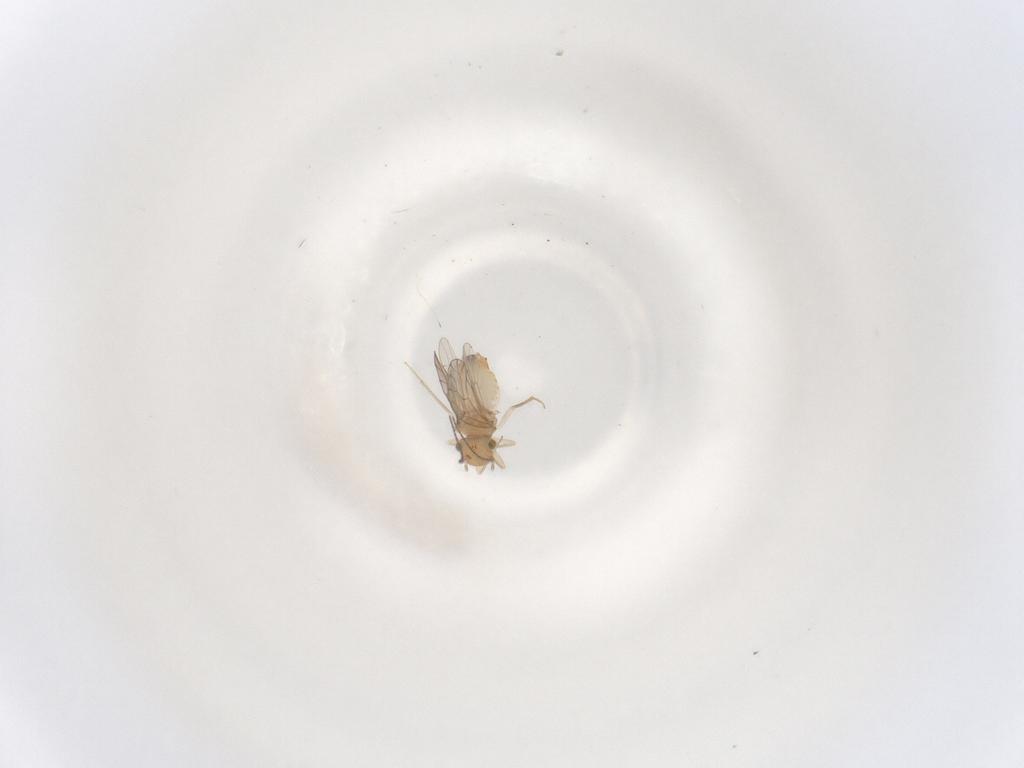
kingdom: Animalia
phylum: Arthropoda
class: Insecta
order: Psocodea
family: Ectopsocidae
